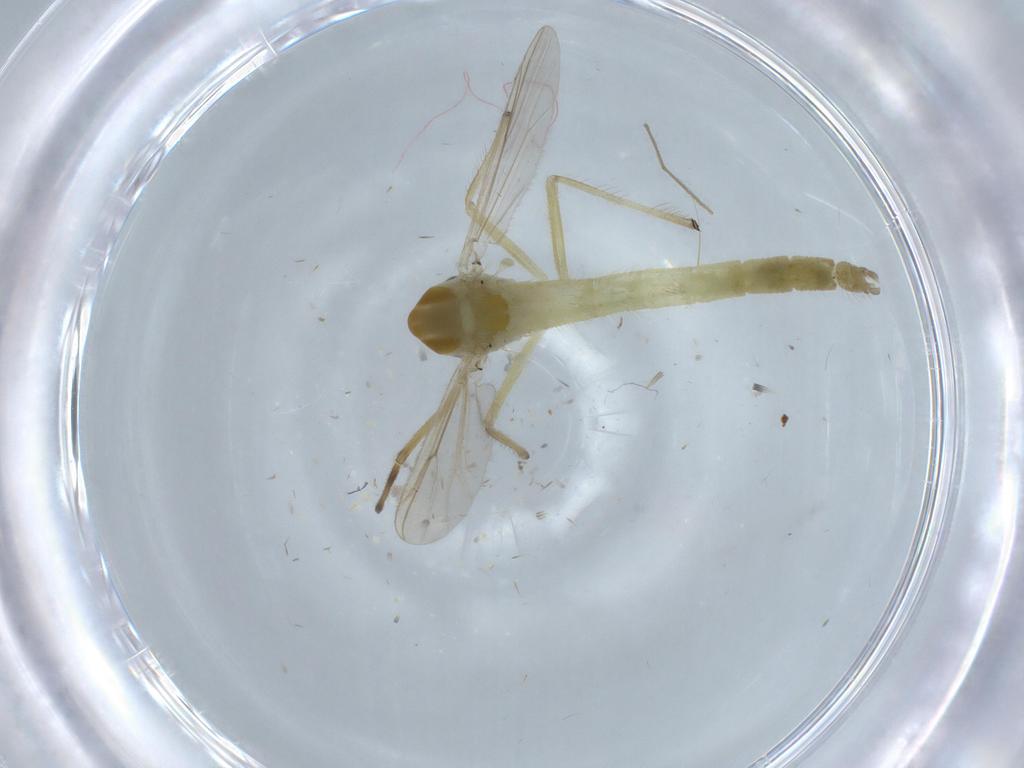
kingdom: Animalia
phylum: Arthropoda
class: Insecta
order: Diptera
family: Chironomidae
